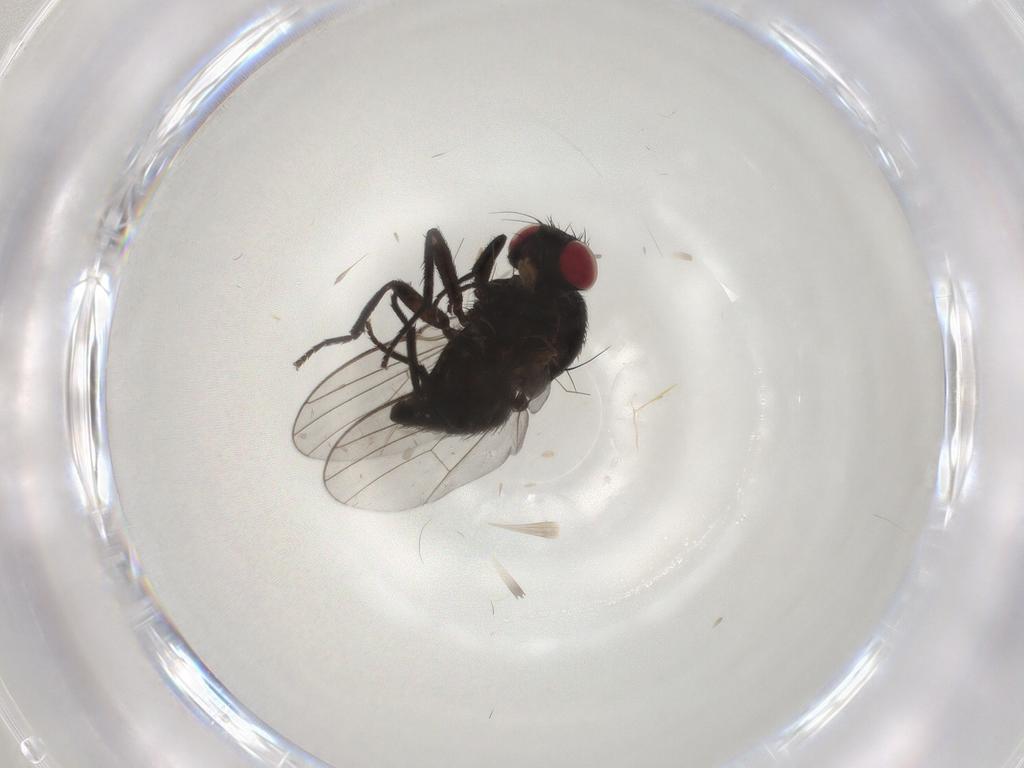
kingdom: Animalia
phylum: Arthropoda
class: Insecta
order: Diptera
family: Agromyzidae
